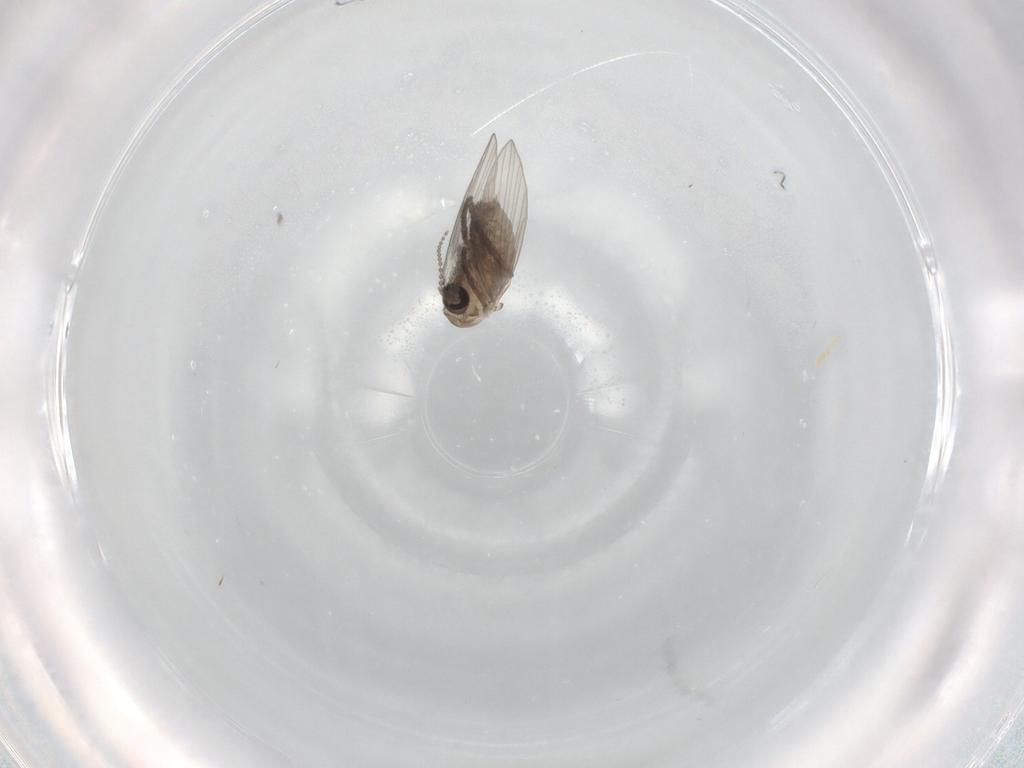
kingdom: Animalia
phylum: Arthropoda
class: Insecta
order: Diptera
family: Psychodidae
